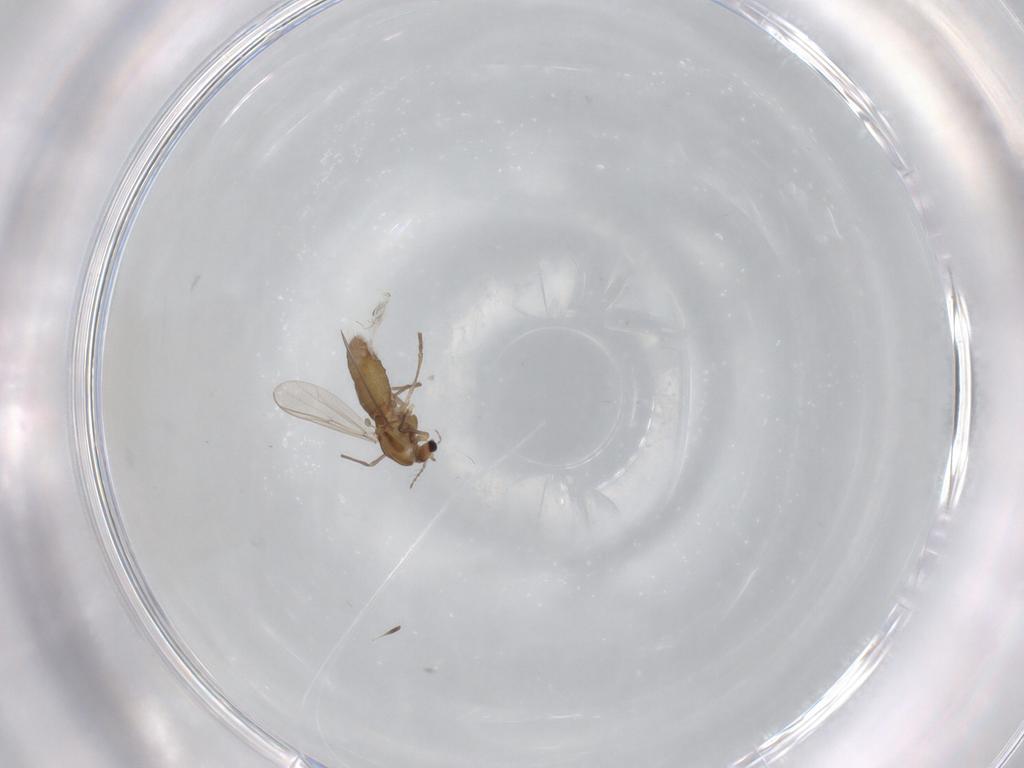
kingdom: Animalia
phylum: Arthropoda
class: Insecta
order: Diptera
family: Chironomidae
